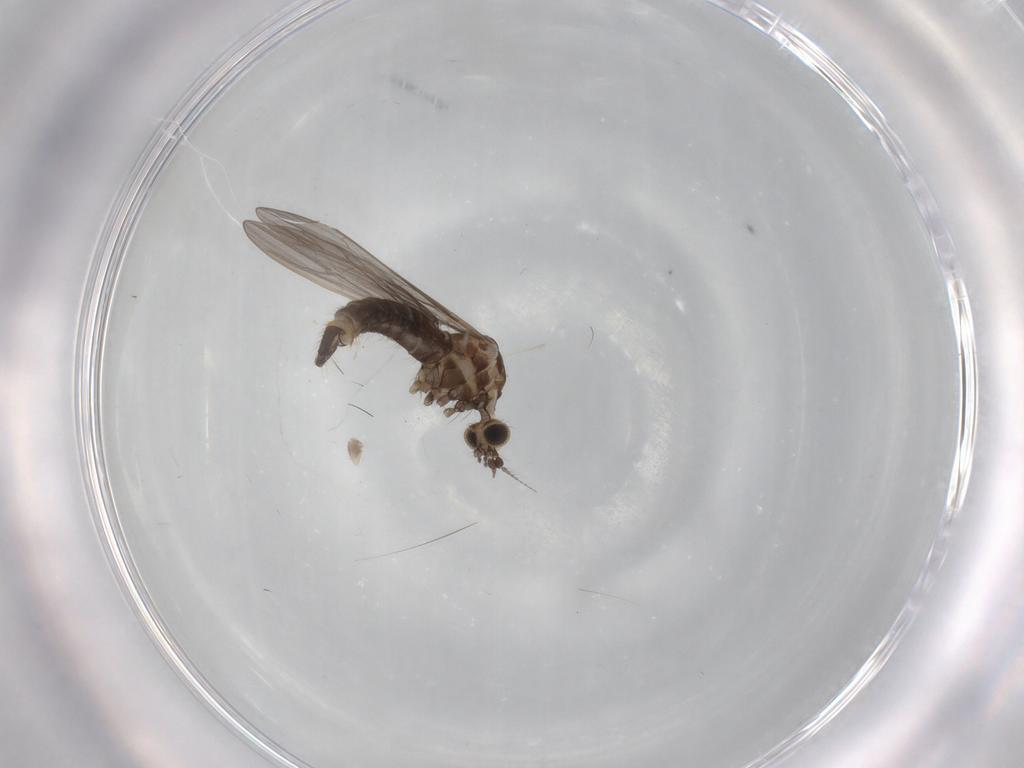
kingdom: Animalia
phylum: Arthropoda
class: Insecta
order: Diptera
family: Limoniidae
